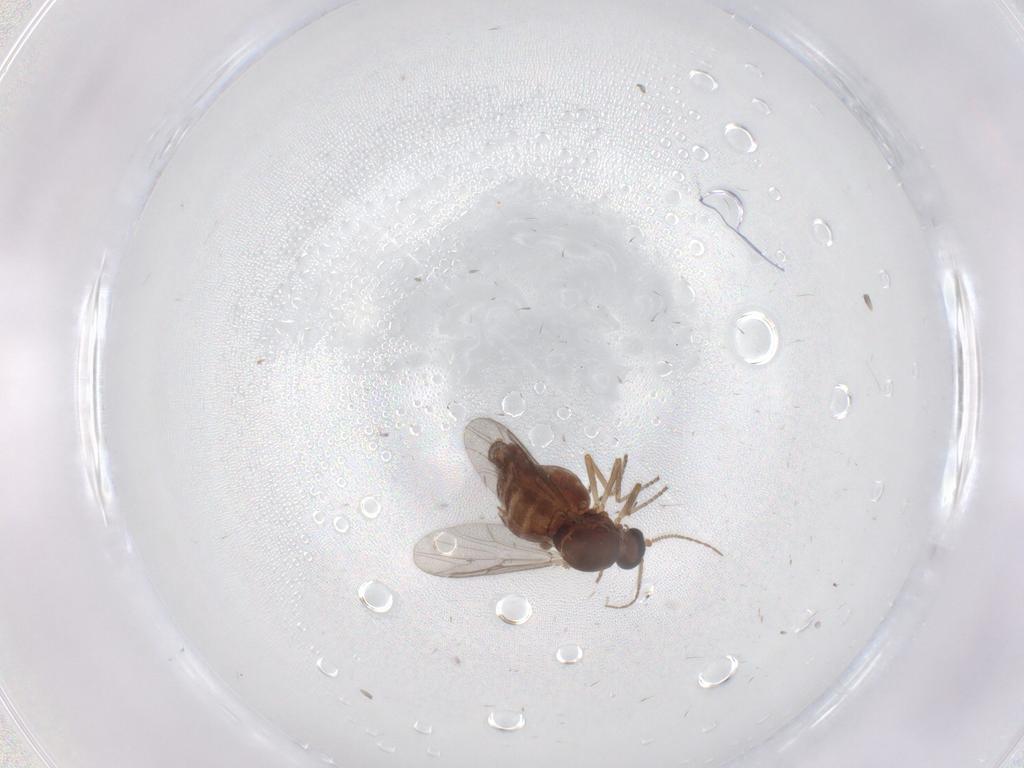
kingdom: Animalia
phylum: Arthropoda
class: Insecta
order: Diptera
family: Ceratopogonidae
